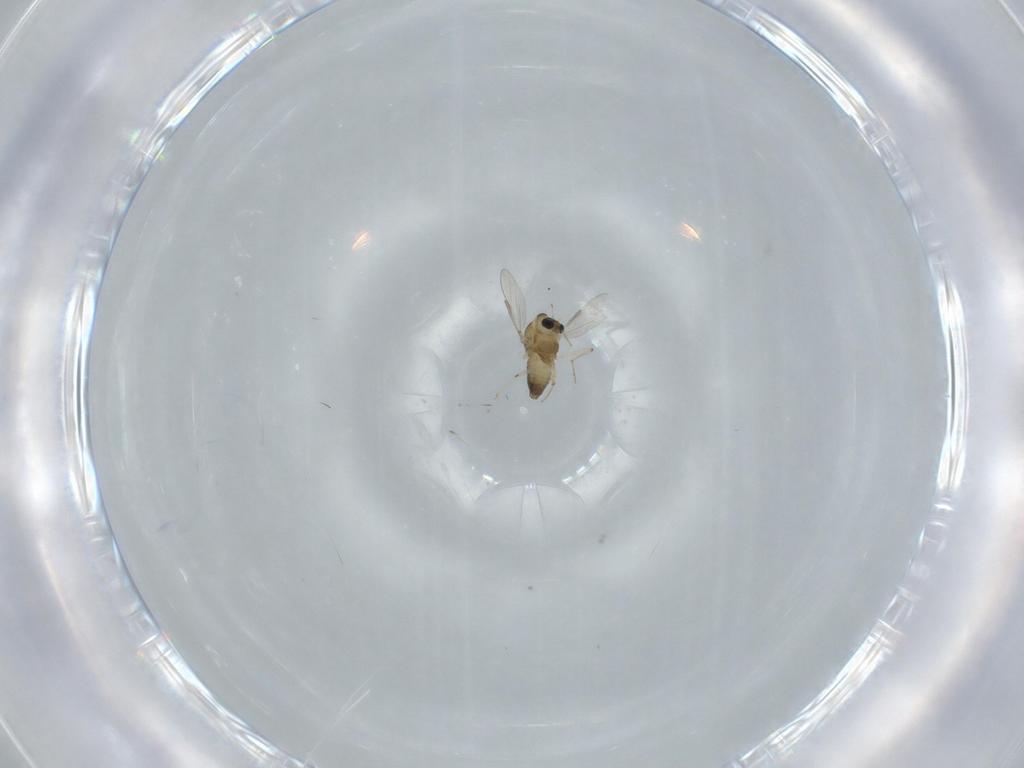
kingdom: Animalia
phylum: Arthropoda
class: Insecta
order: Diptera
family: Chironomidae
